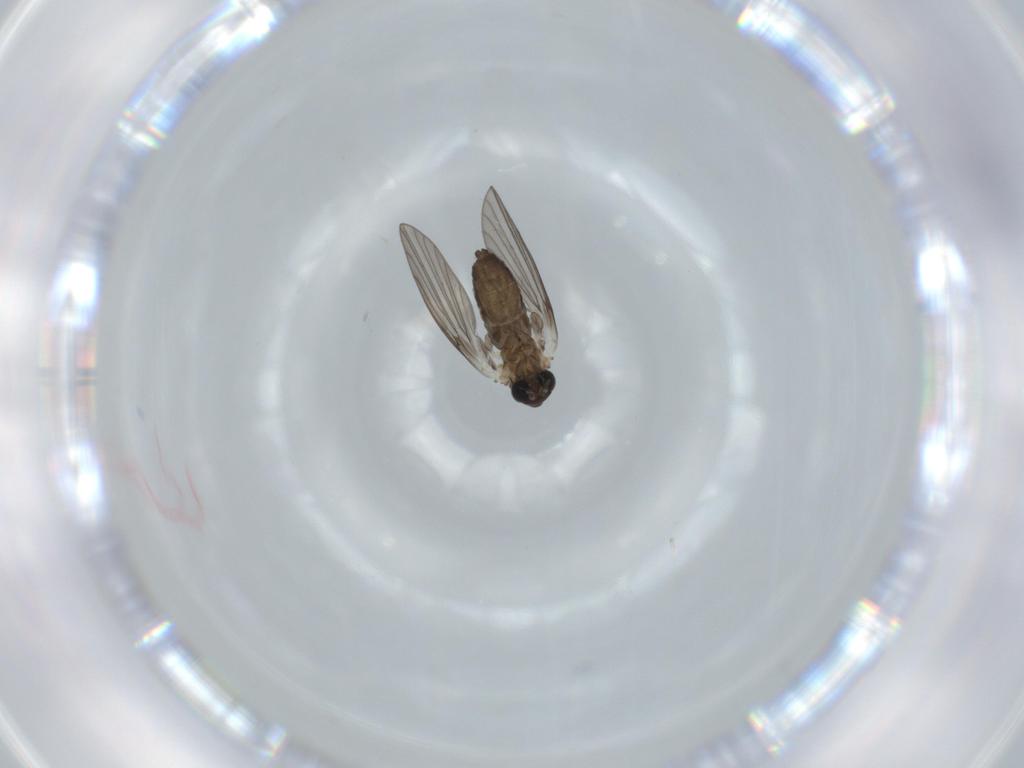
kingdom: Animalia
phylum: Arthropoda
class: Insecta
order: Diptera
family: Psychodidae
